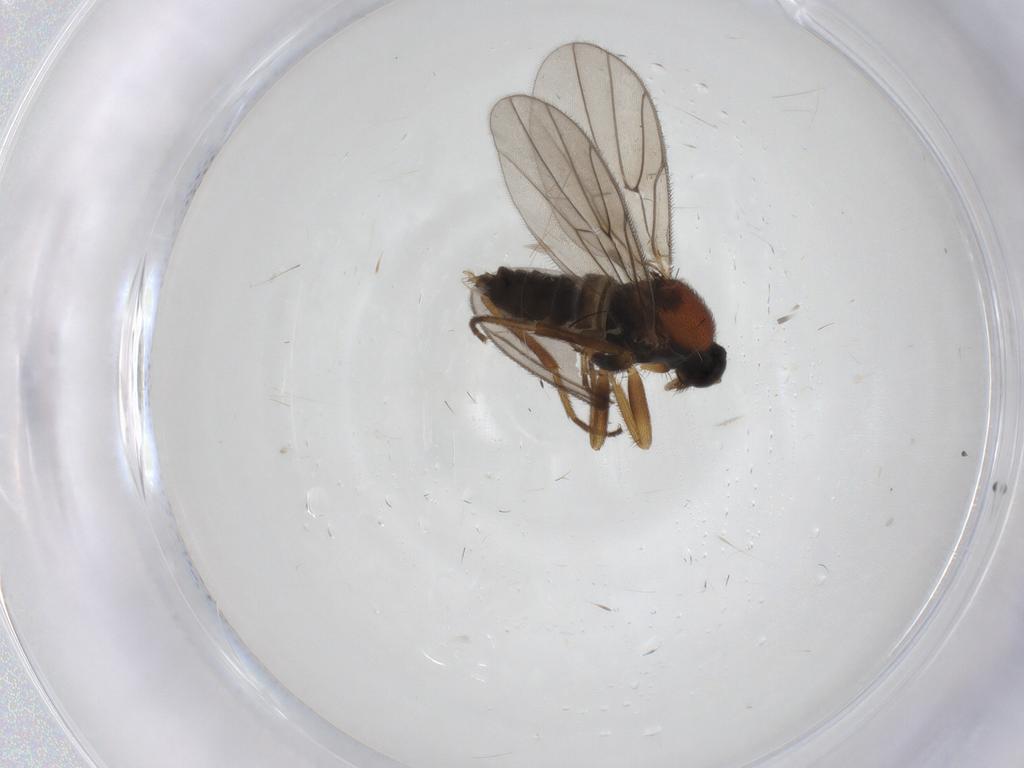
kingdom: Animalia
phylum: Arthropoda
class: Insecta
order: Diptera
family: Hybotidae
